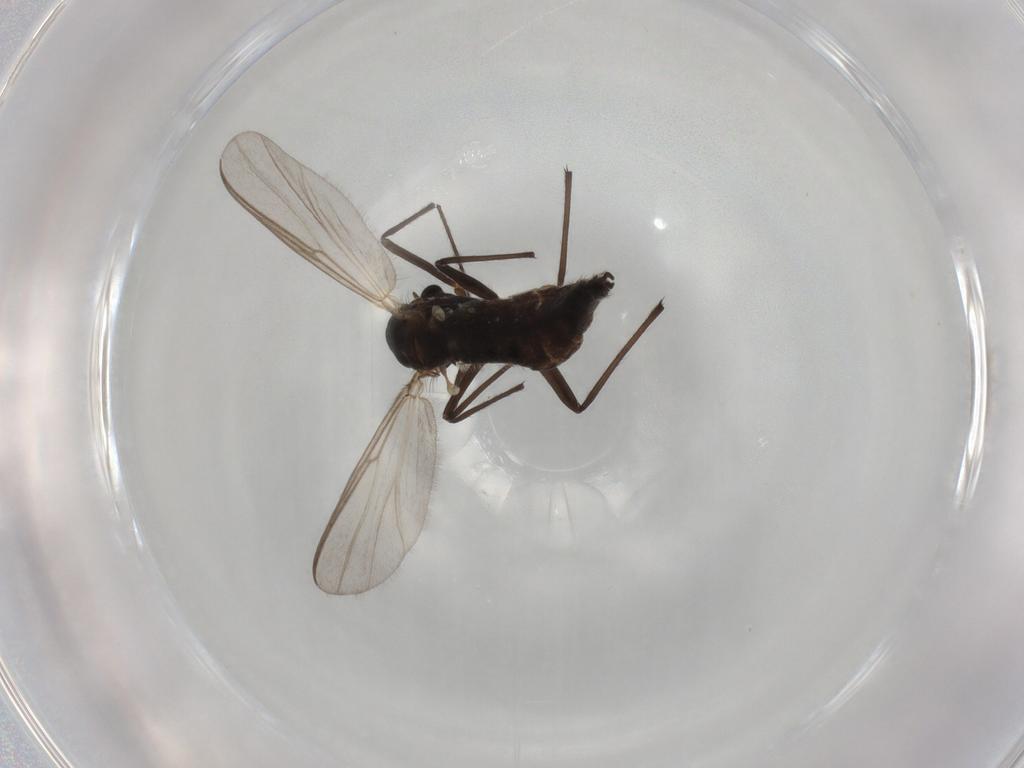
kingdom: Animalia
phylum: Arthropoda
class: Insecta
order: Diptera
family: Chironomidae
